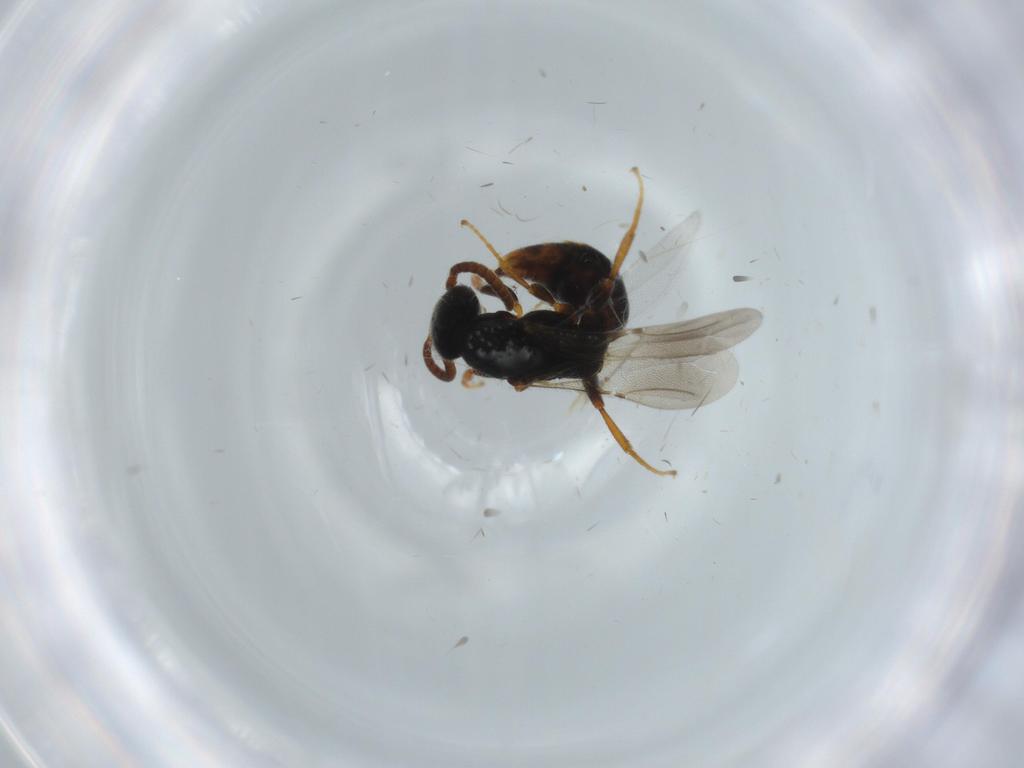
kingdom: Animalia
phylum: Arthropoda
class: Insecta
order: Hymenoptera
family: Bethylidae
